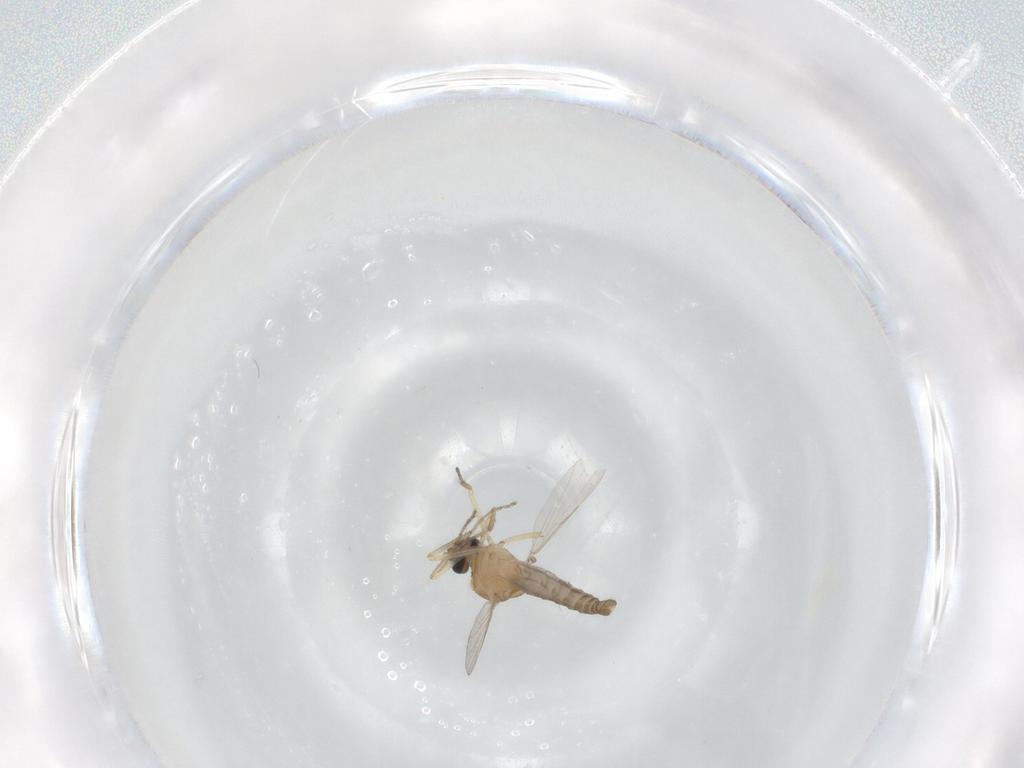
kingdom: Animalia
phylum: Arthropoda
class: Insecta
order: Diptera
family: Ceratopogonidae
